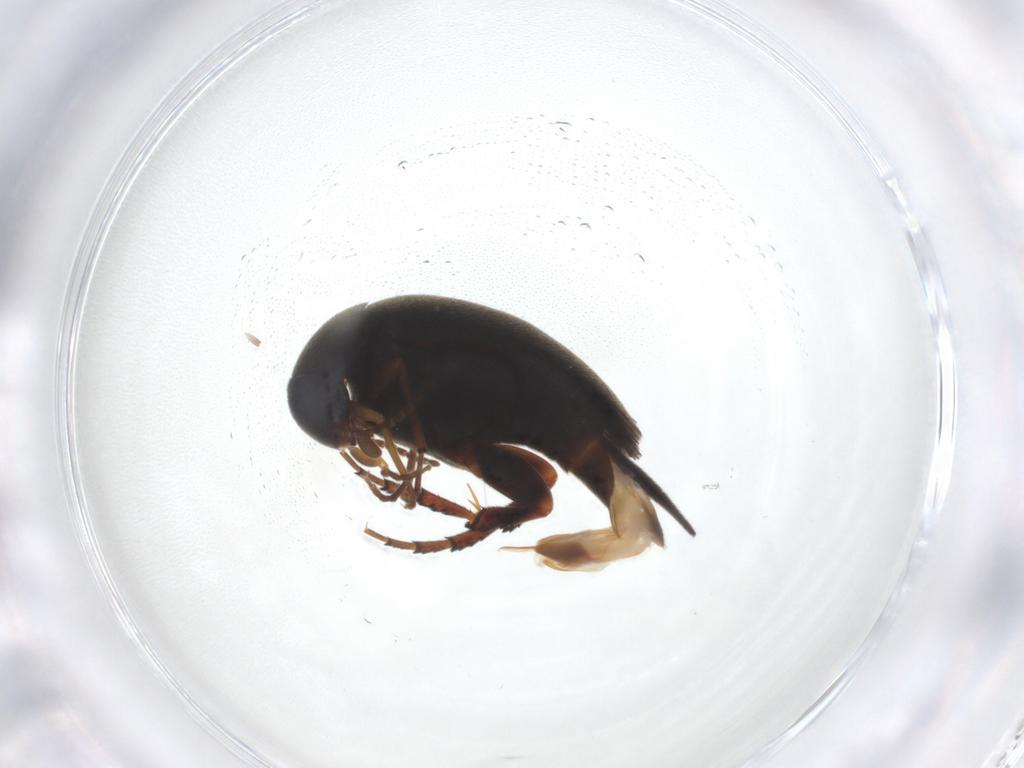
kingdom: Animalia
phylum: Arthropoda
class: Insecta
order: Coleoptera
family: Mordellidae
